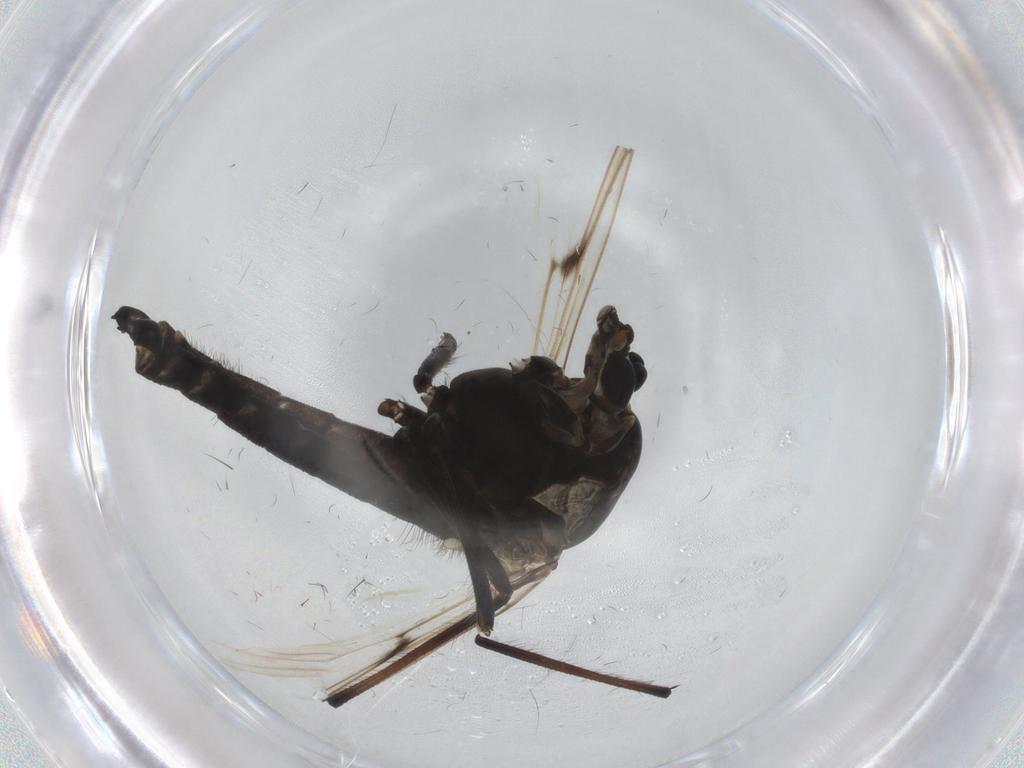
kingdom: Animalia
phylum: Arthropoda
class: Insecta
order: Diptera
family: Chironomidae
